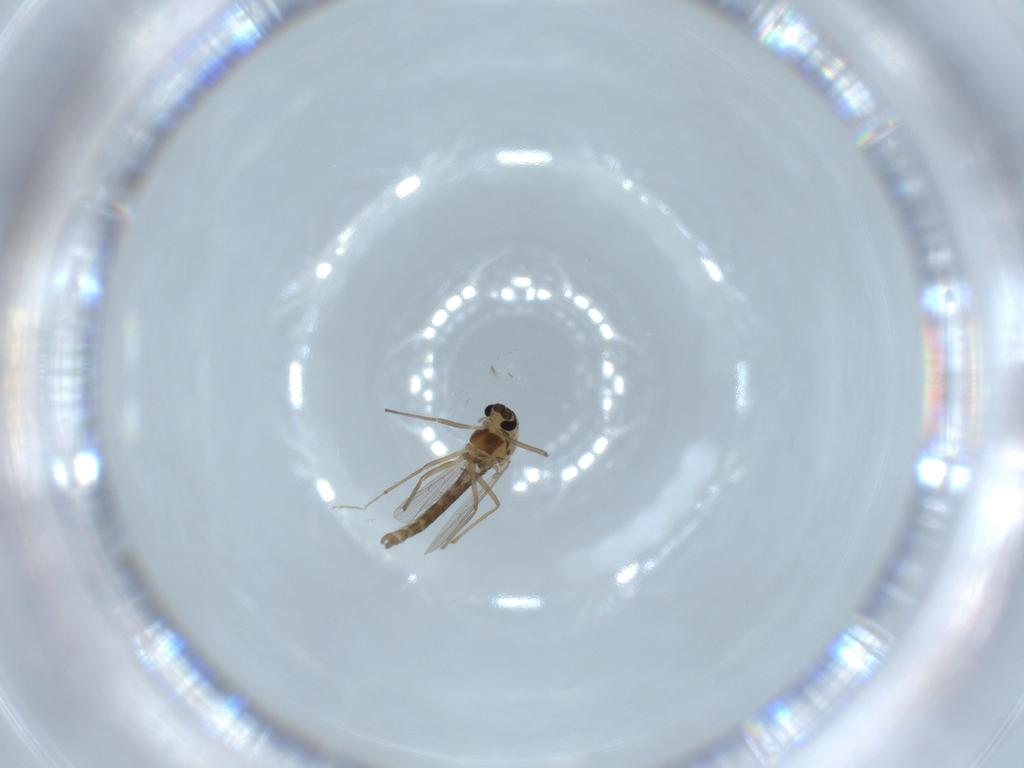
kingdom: Animalia
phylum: Arthropoda
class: Insecta
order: Diptera
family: Chironomidae
